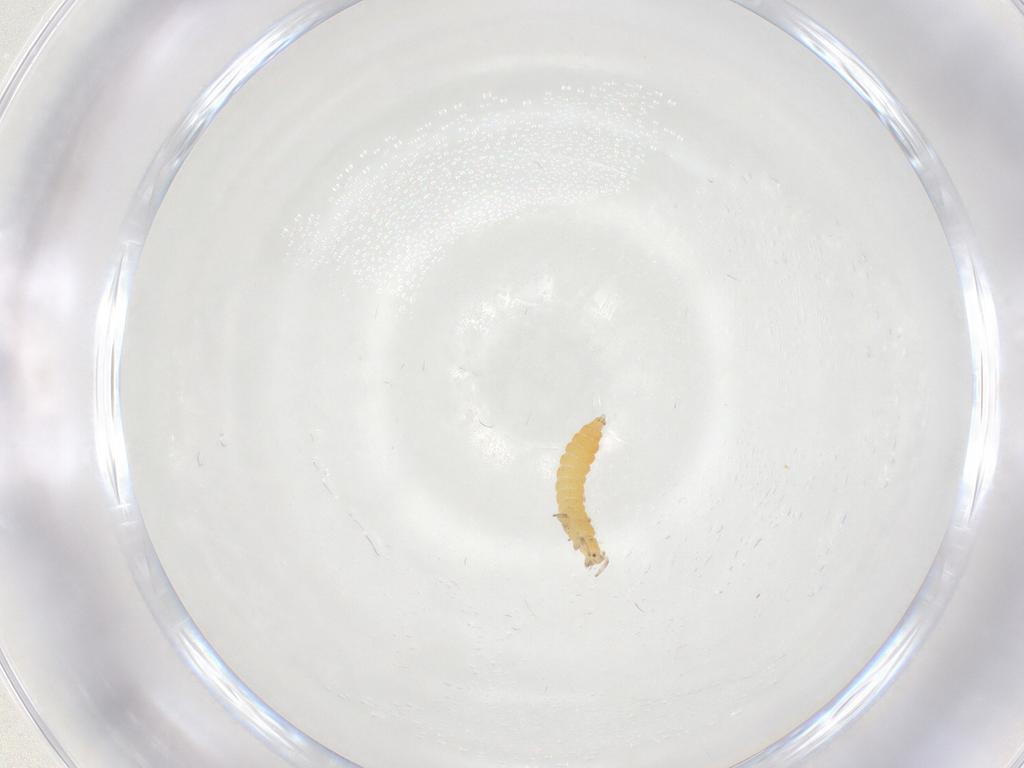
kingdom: Animalia
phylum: Arthropoda
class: Insecta
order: Thysanoptera
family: Aeolothripidae
